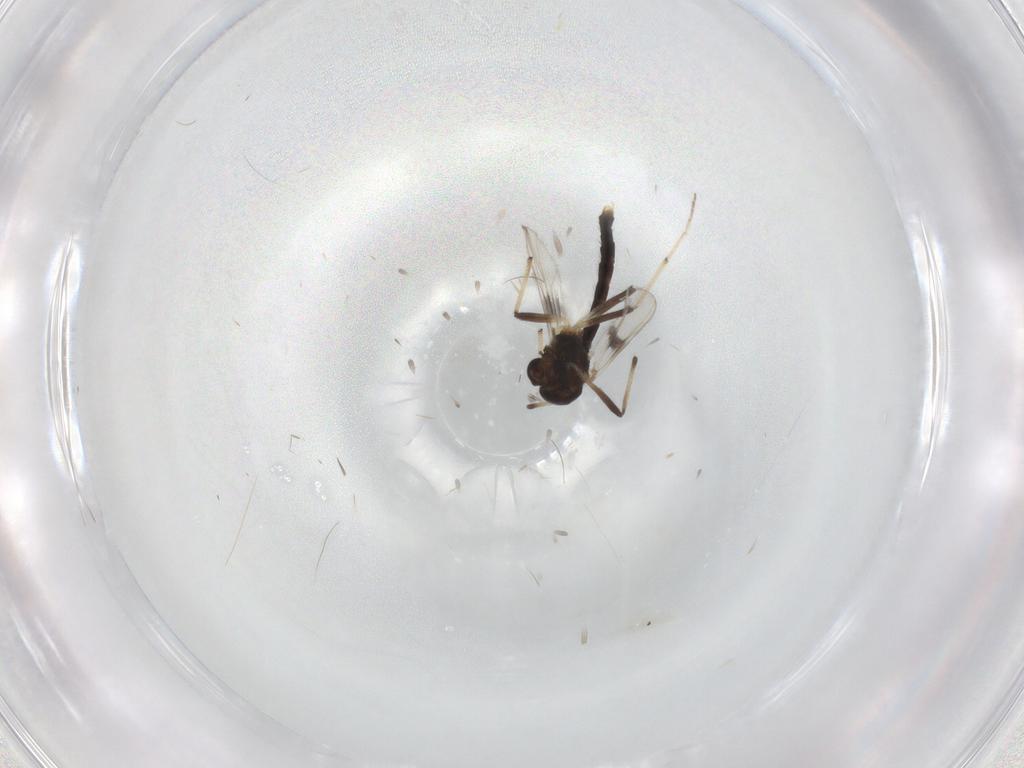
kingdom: Animalia
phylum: Arthropoda
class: Insecta
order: Diptera
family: Chironomidae
